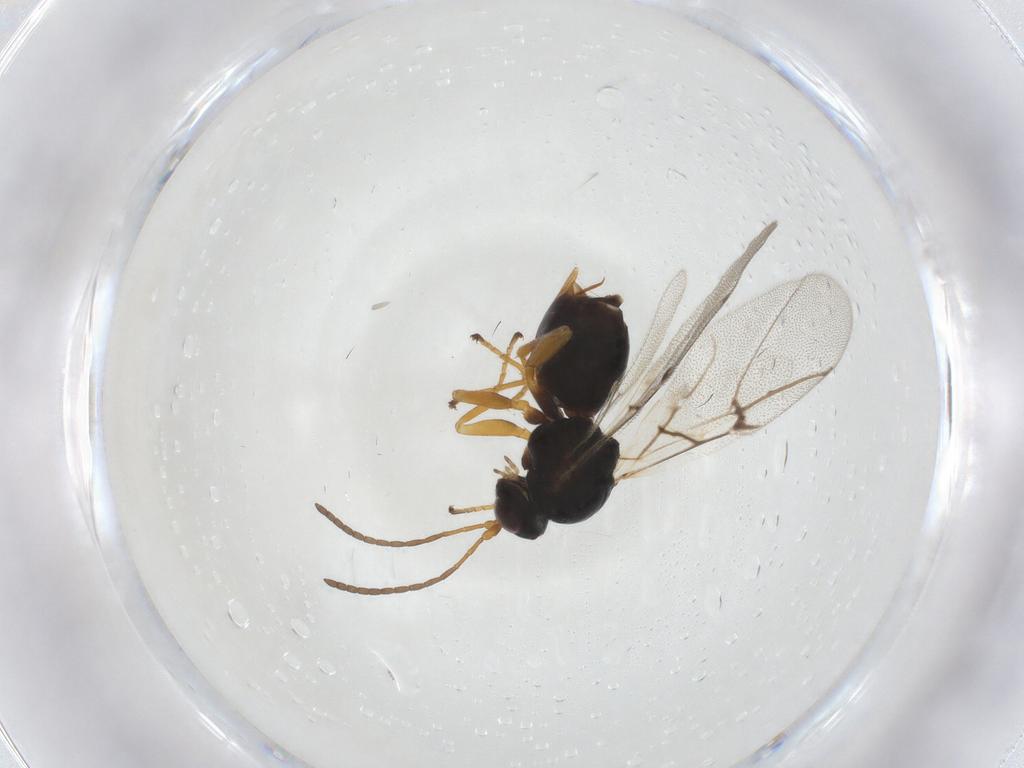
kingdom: Animalia
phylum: Arthropoda
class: Insecta
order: Hymenoptera
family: Cynipidae
